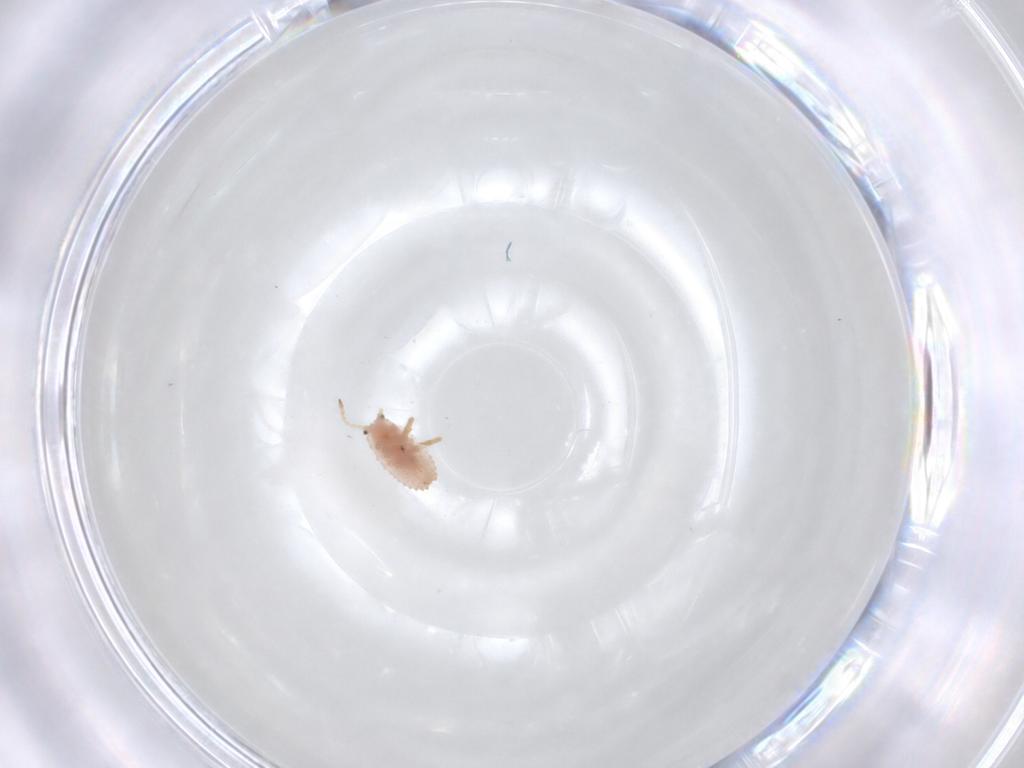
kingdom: Animalia
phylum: Arthropoda
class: Insecta
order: Hemiptera
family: Coccoidea_incertae_sedis
